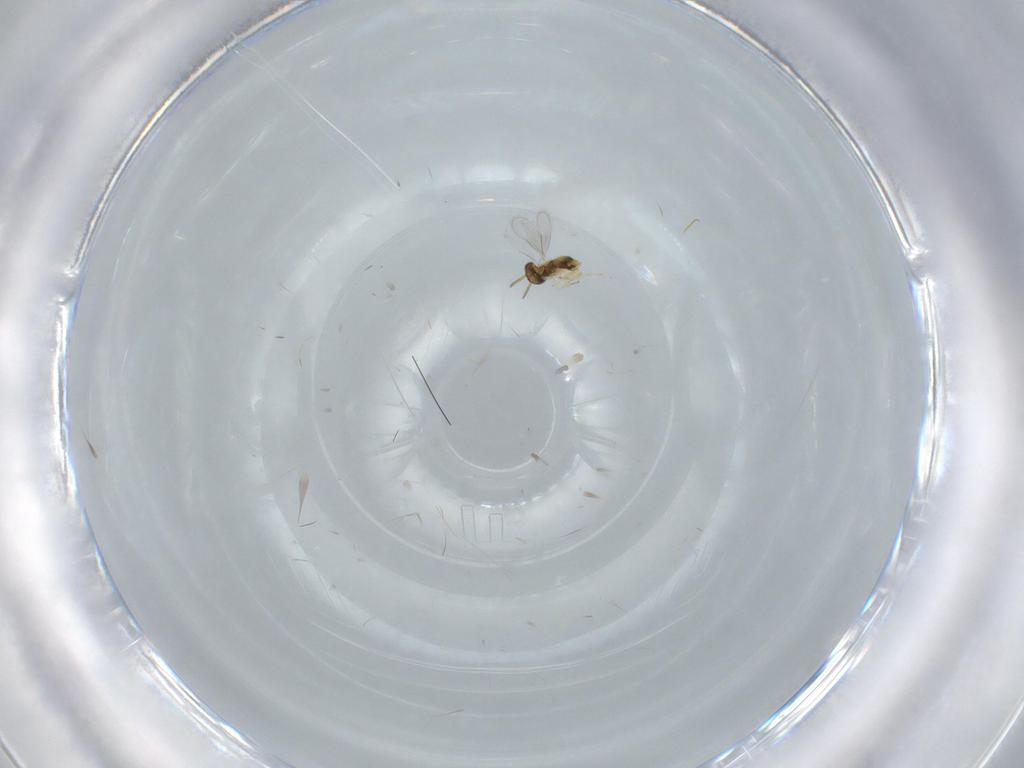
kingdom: Animalia
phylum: Arthropoda
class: Insecta
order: Hymenoptera
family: Aphelinidae
